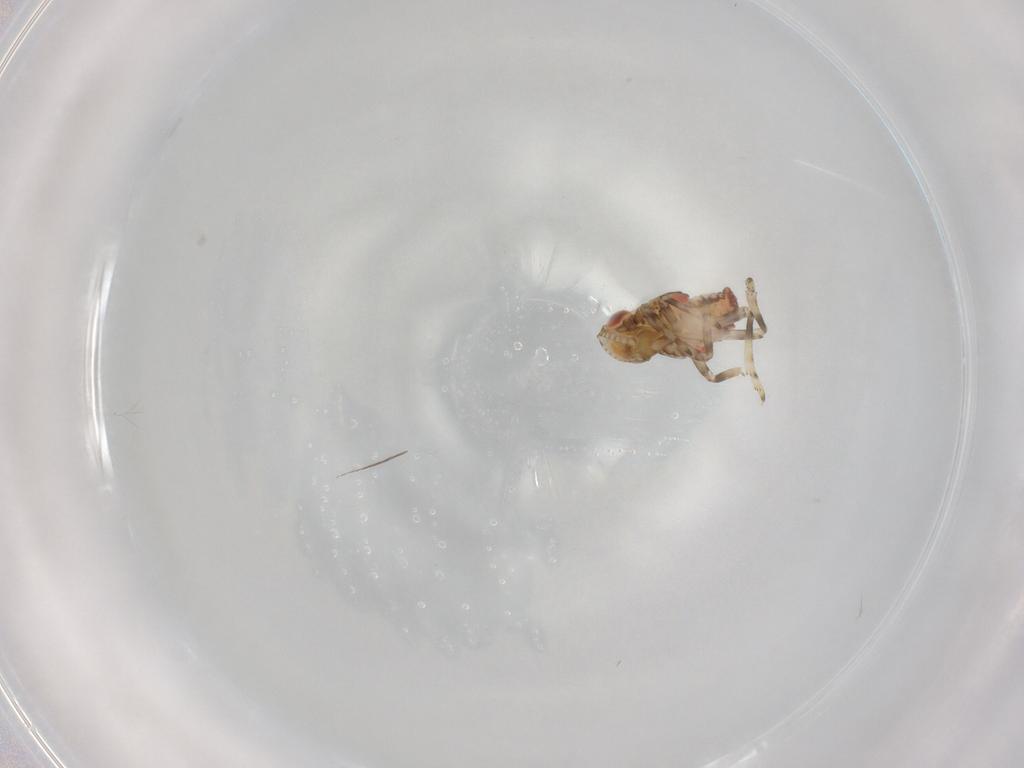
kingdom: Animalia
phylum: Arthropoda
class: Insecta
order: Hemiptera
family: Tropiduchidae
